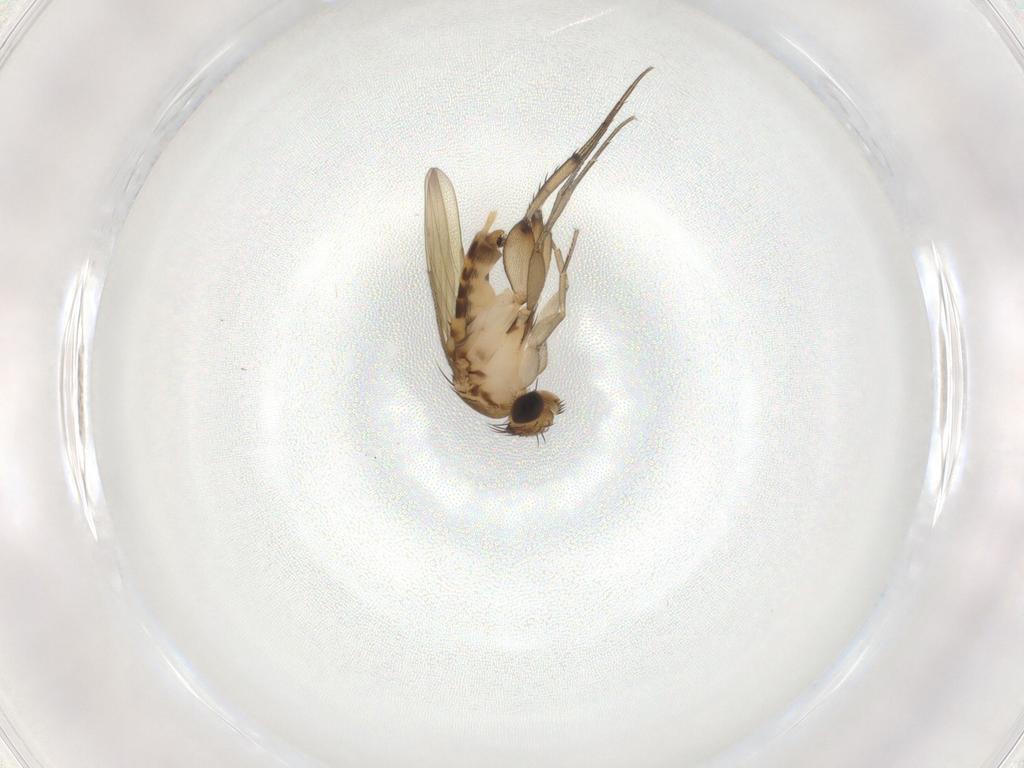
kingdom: Animalia
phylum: Arthropoda
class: Insecta
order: Diptera
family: Phoridae
